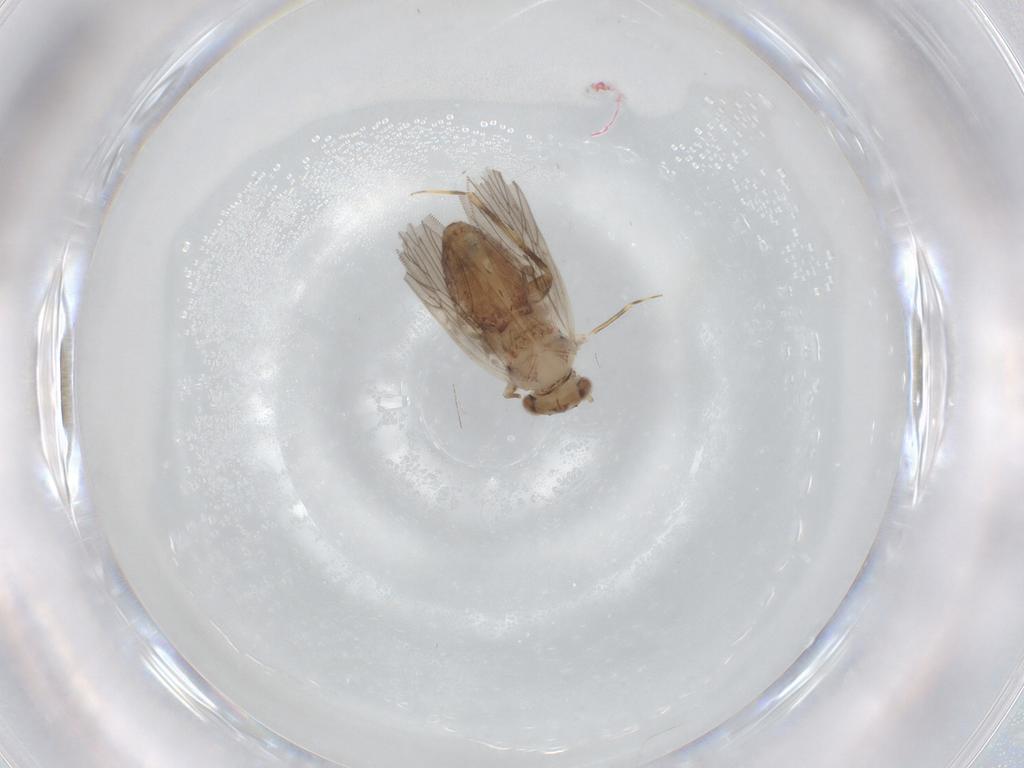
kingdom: Animalia
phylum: Arthropoda
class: Insecta
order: Psocodea
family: Lepidopsocidae
